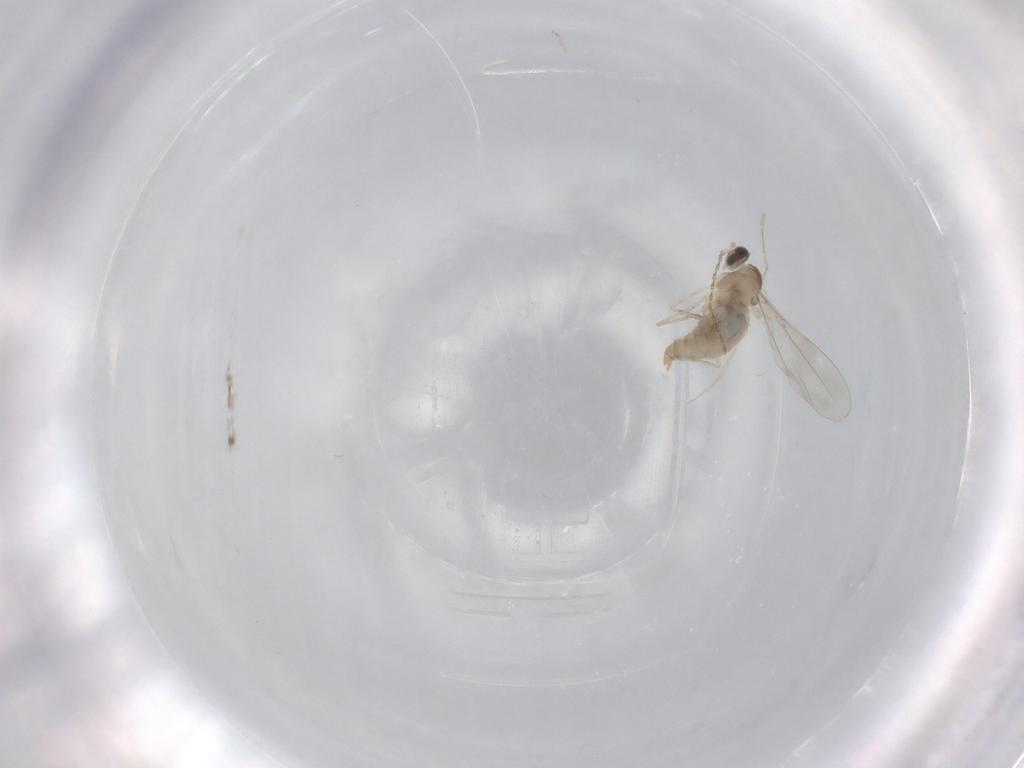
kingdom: Animalia
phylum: Arthropoda
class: Insecta
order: Diptera
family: Cecidomyiidae
